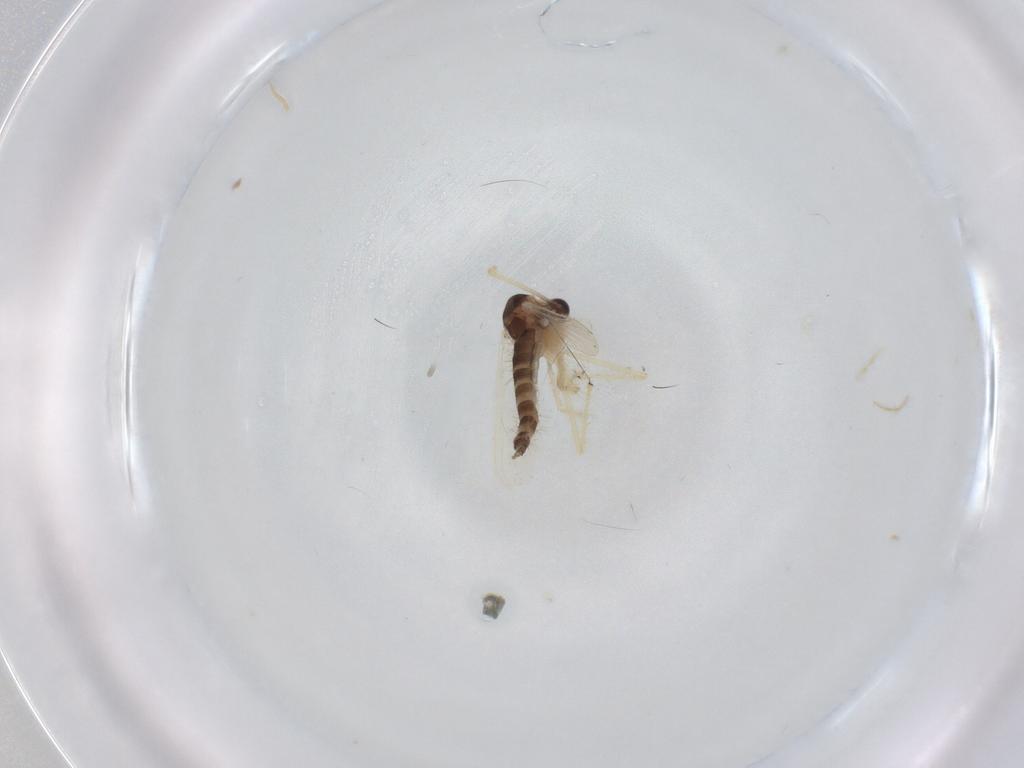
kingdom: Animalia
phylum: Arthropoda
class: Insecta
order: Diptera
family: Chironomidae
